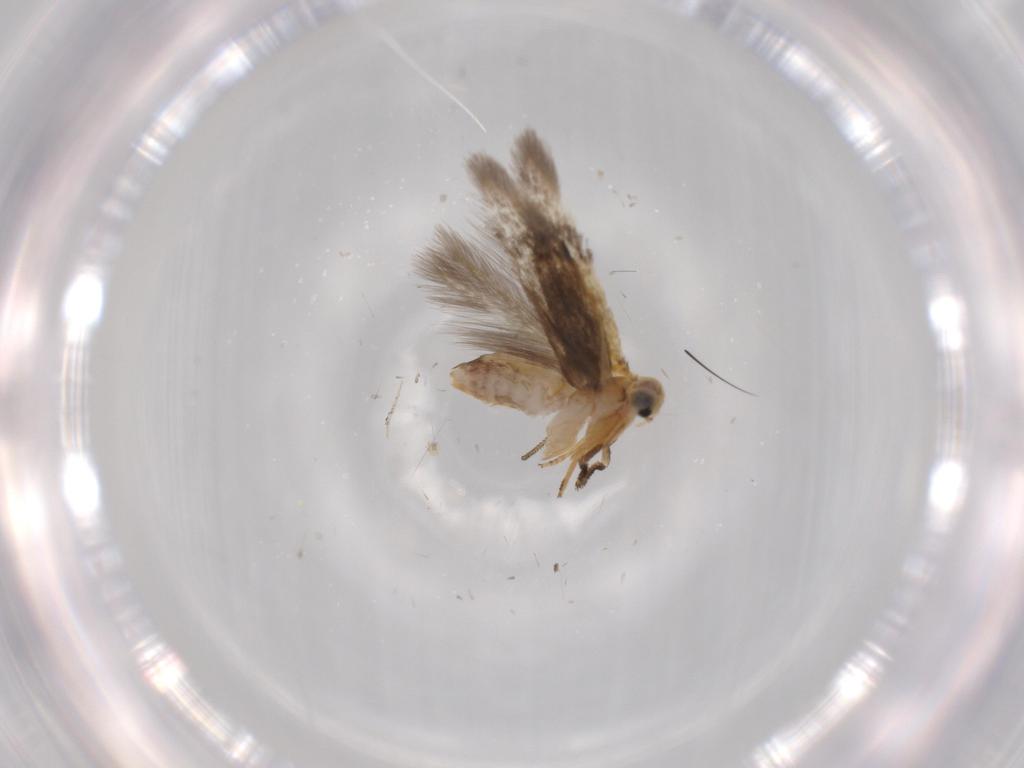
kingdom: Animalia
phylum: Arthropoda
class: Insecta
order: Lepidoptera
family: Nepticulidae
